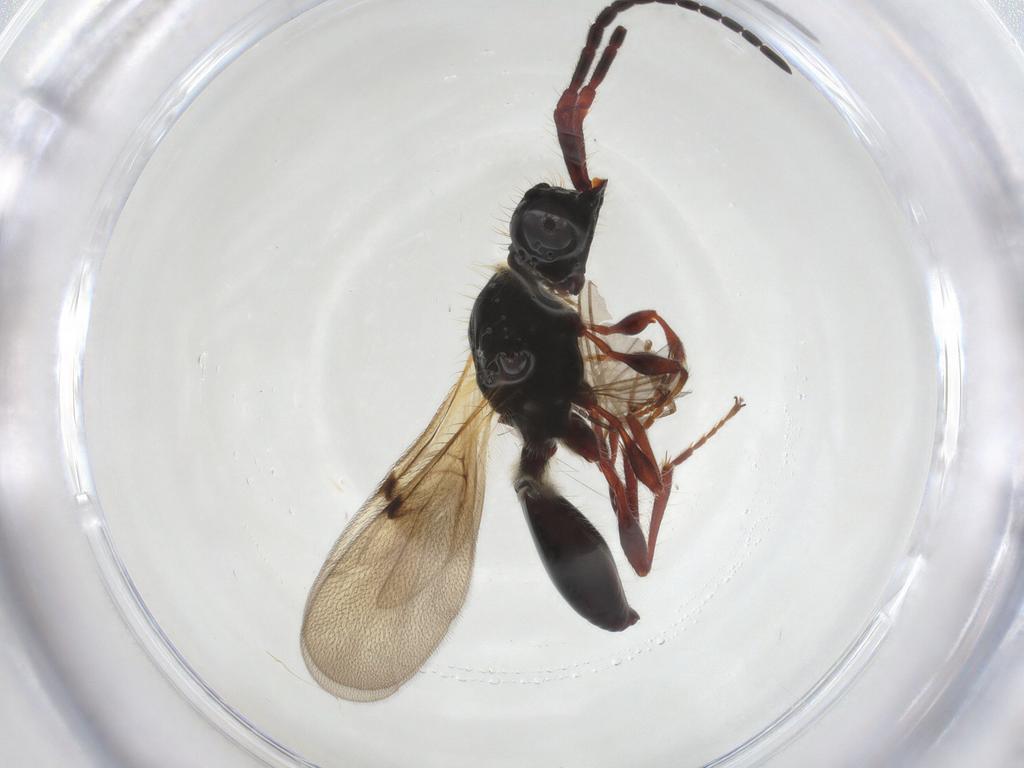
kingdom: Animalia
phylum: Arthropoda
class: Insecta
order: Hymenoptera
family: Diapriidae
